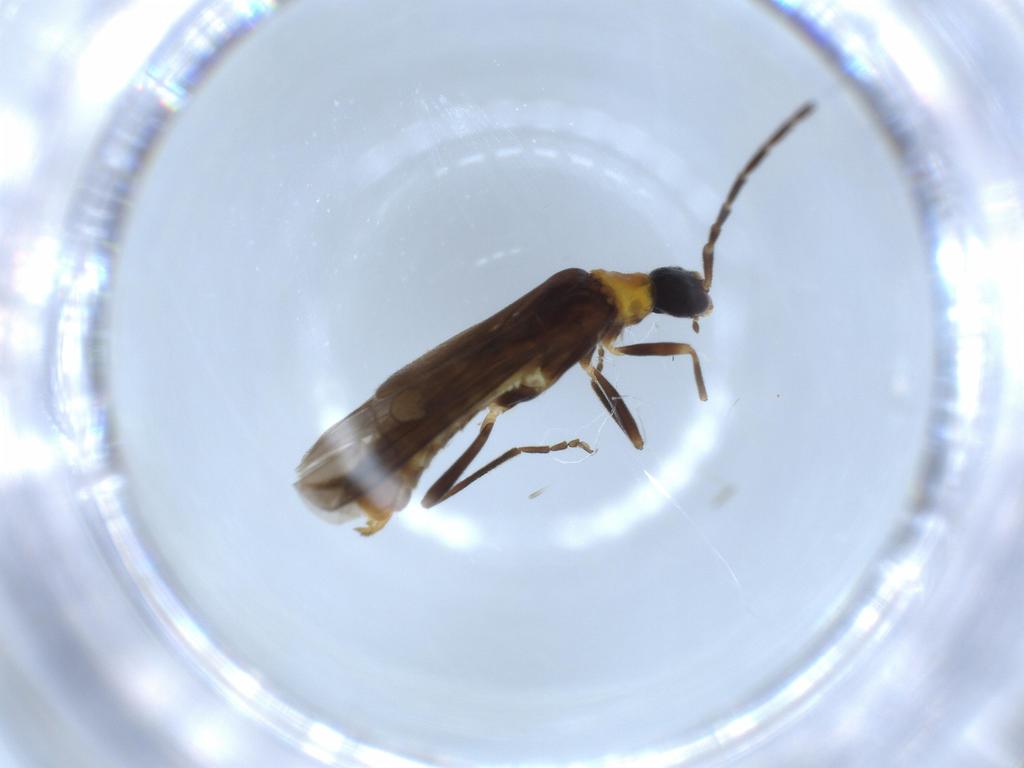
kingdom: Animalia
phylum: Arthropoda
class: Insecta
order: Coleoptera
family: Cantharidae
